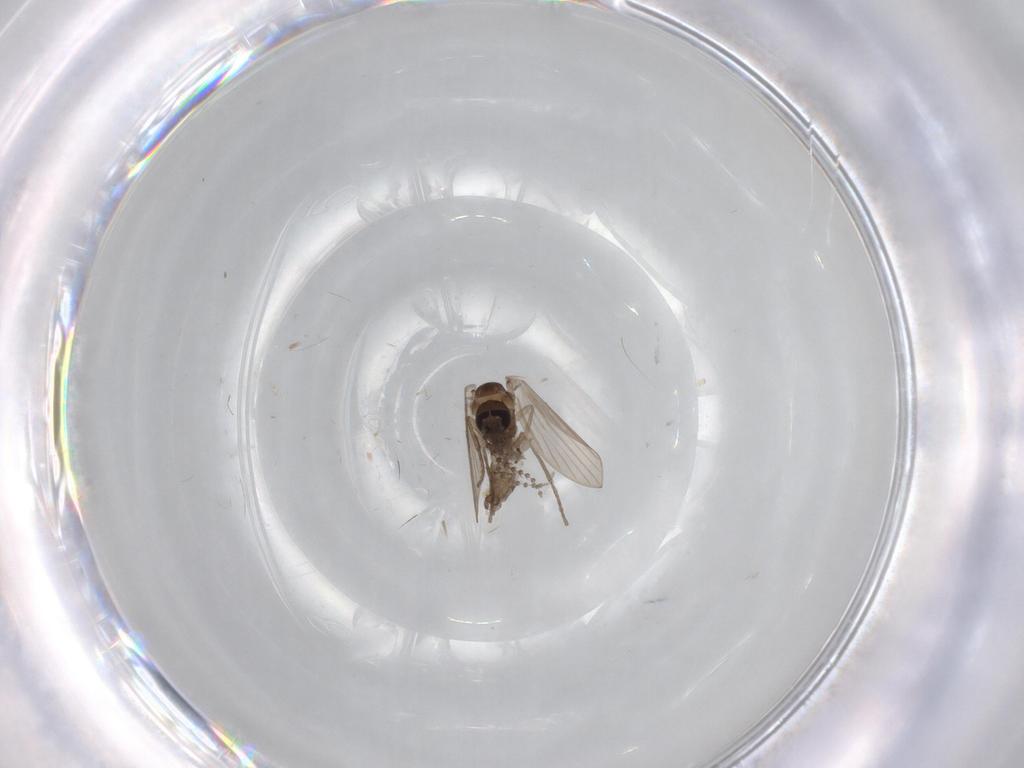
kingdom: Animalia
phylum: Arthropoda
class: Insecta
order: Diptera
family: Psychodidae
